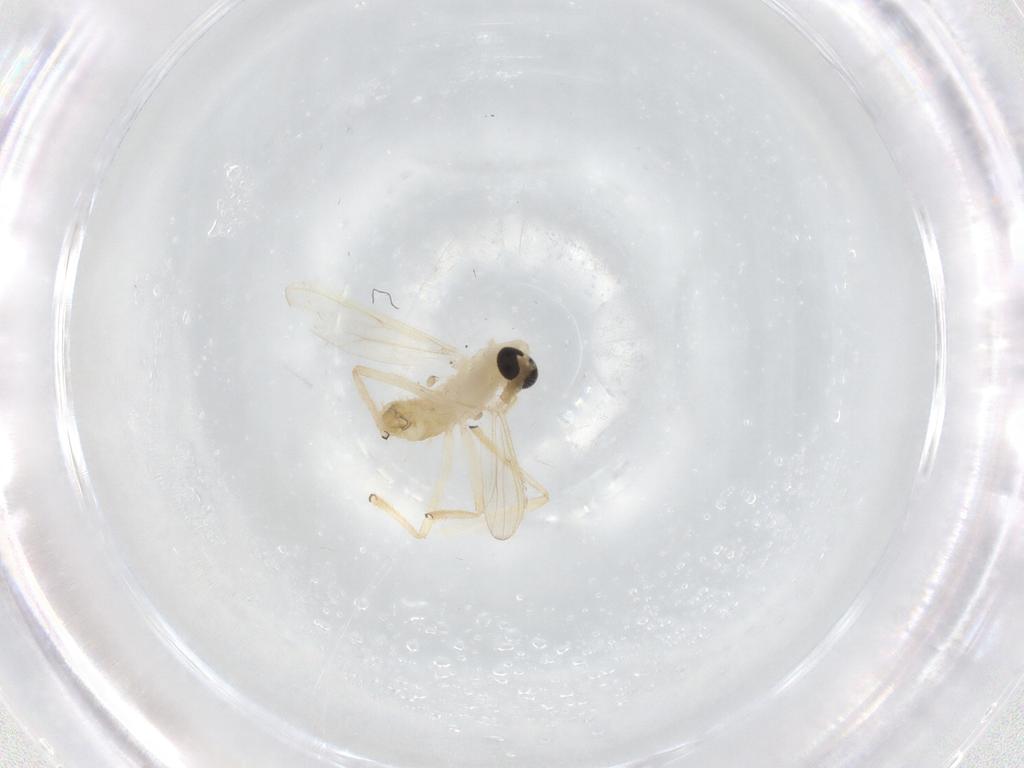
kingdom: Animalia
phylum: Arthropoda
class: Insecta
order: Diptera
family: Chironomidae
